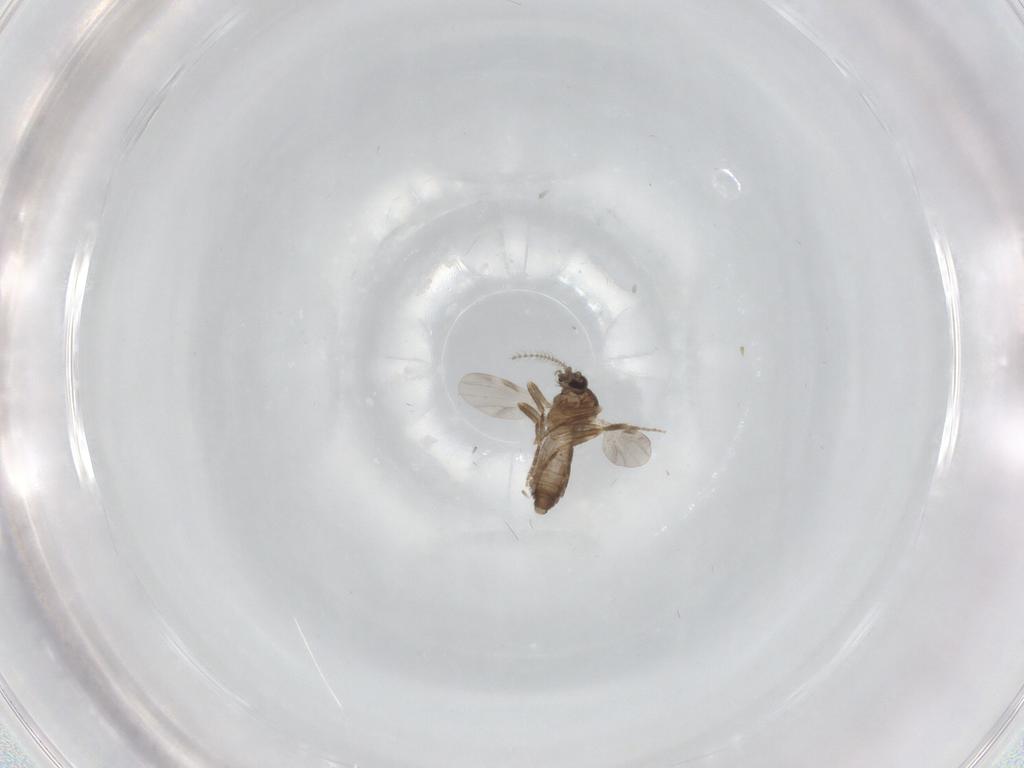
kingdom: Animalia
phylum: Arthropoda
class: Insecta
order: Diptera
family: Ceratopogonidae
